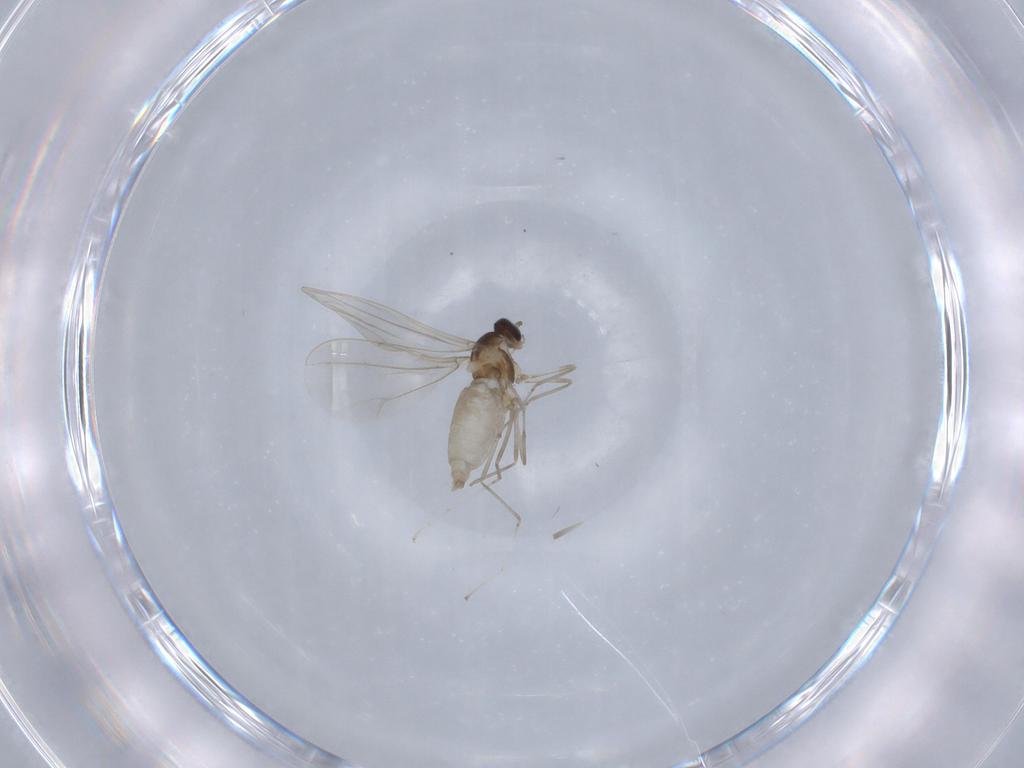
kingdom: Animalia
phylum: Arthropoda
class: Insecta
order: Diptera
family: Cecidomyiidae
